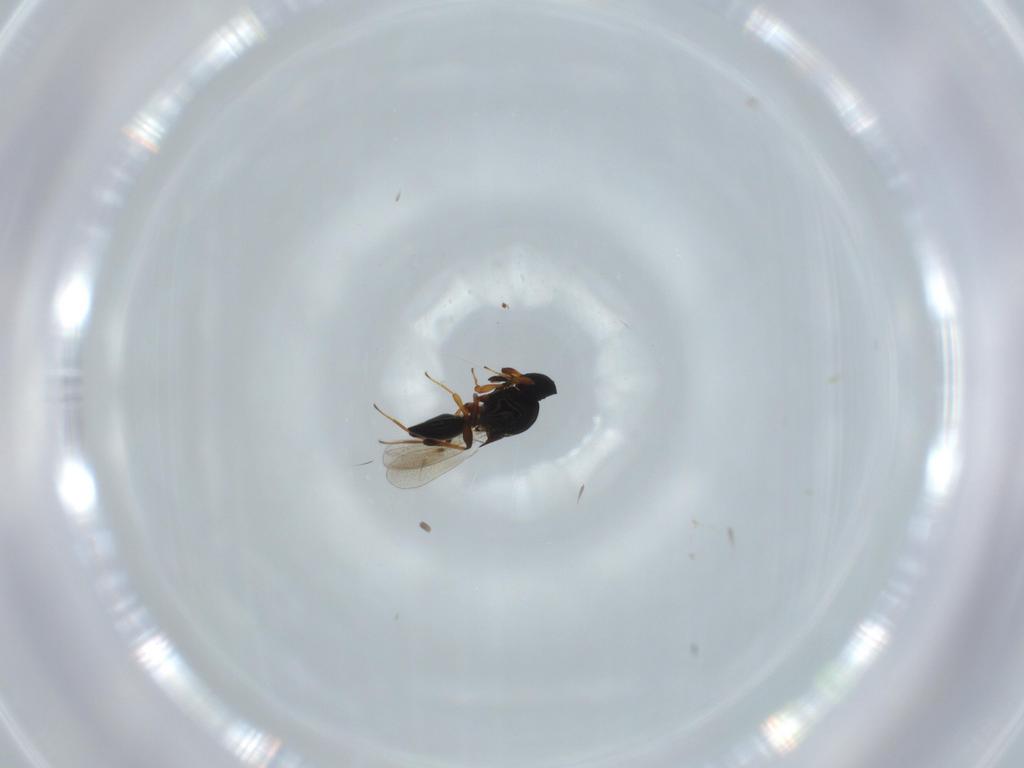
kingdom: Animalia
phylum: Arthropoda
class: Insecta
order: Hymenoptera
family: Platygastridae
